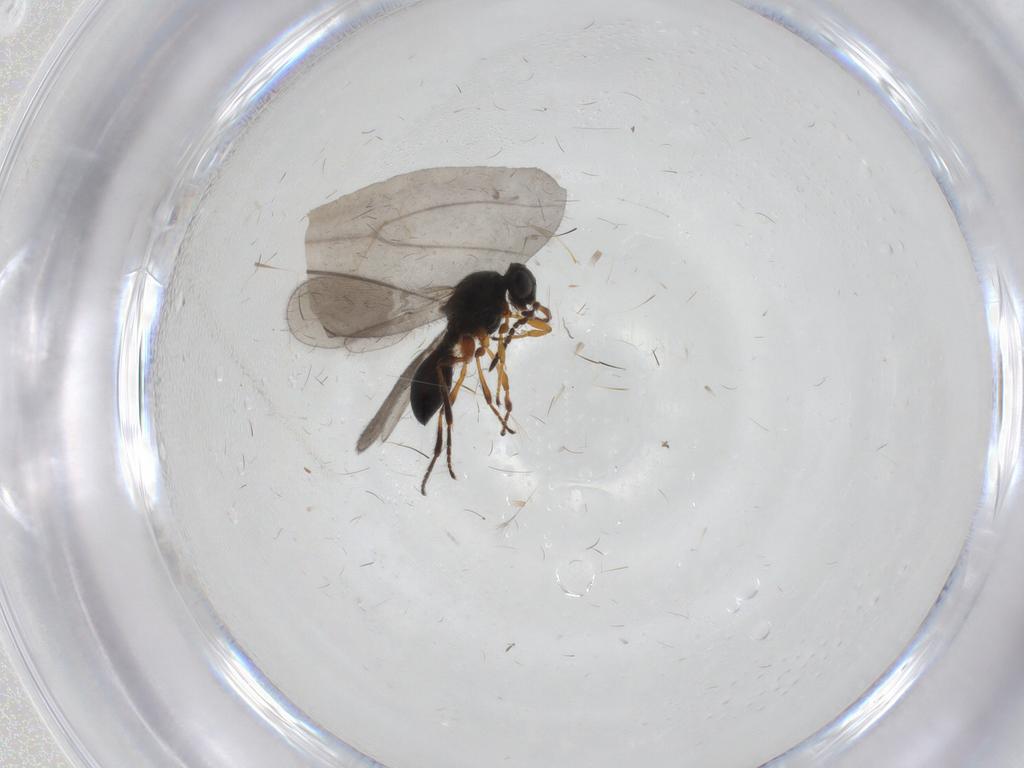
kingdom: Animalia
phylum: Arthropoda
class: Insecta
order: Hymenoptera
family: Platygastridae
